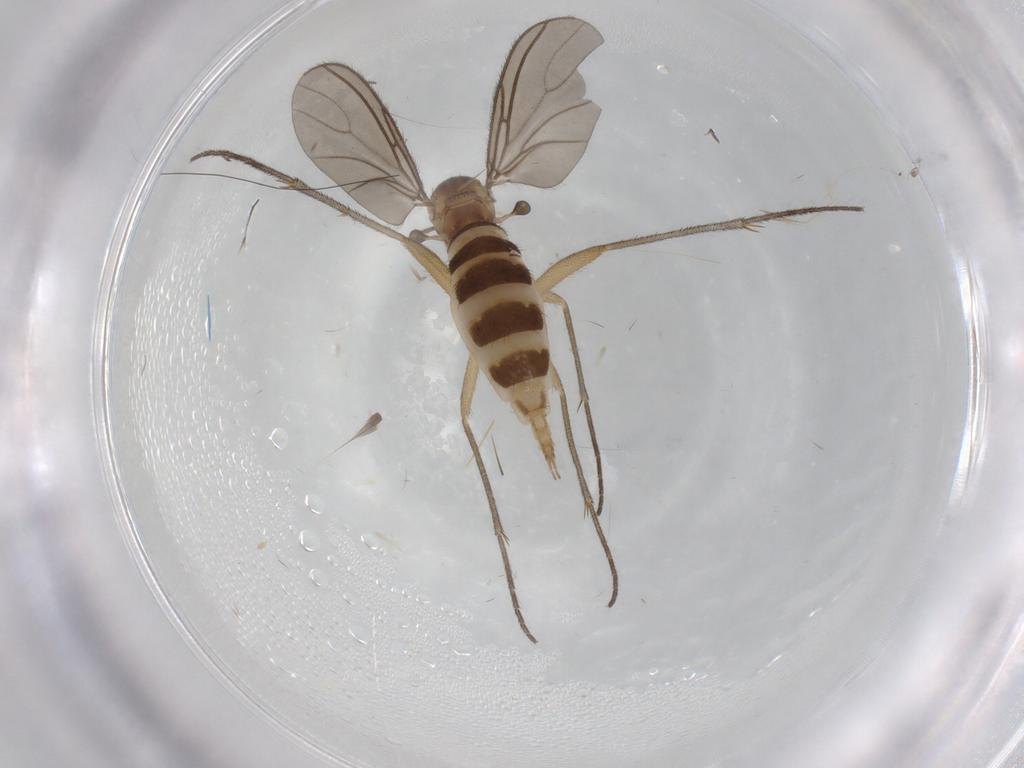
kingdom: Animalia
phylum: Arthropoda
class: Insecta
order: Diptera
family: Sciaridae
